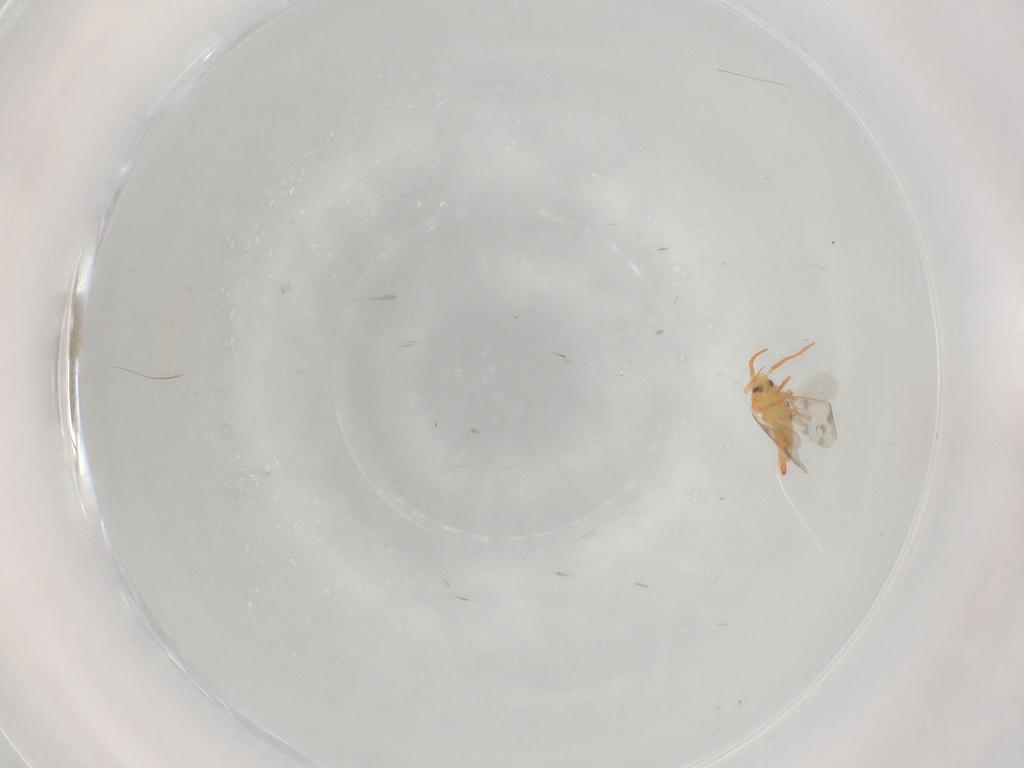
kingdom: Animalia
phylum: Arthropoda
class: Insecta
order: Hemiptera
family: Aleyrodidae
